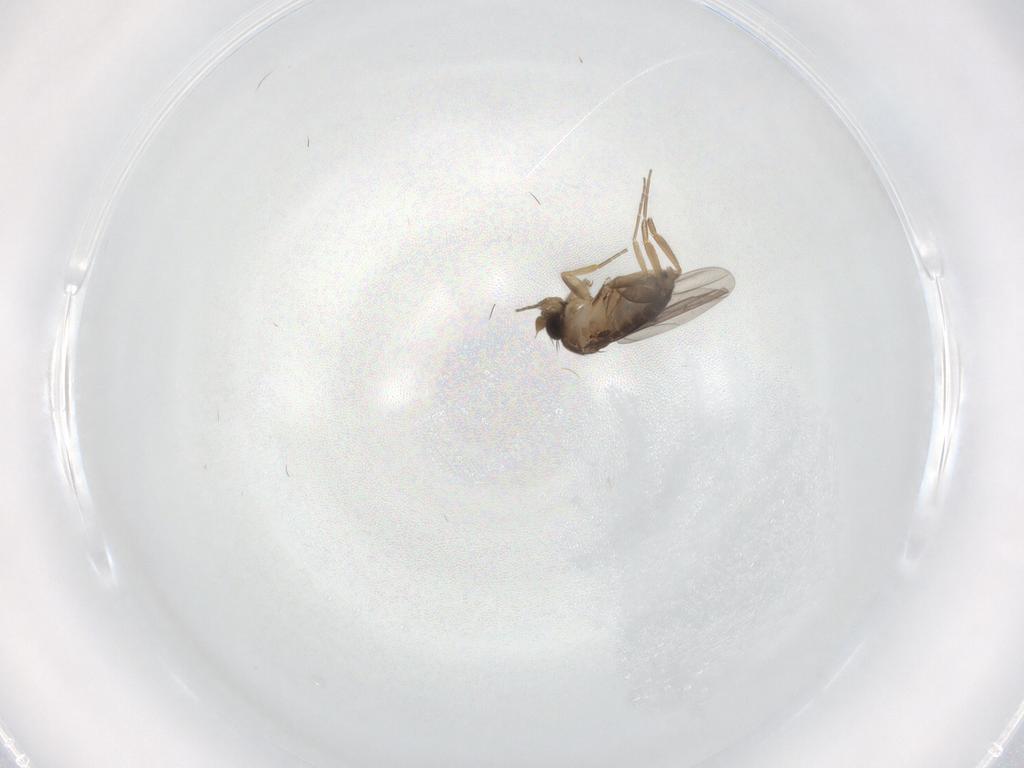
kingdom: Animalia
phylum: Arthropoda
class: Insecta
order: Diptera
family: Phoridae
